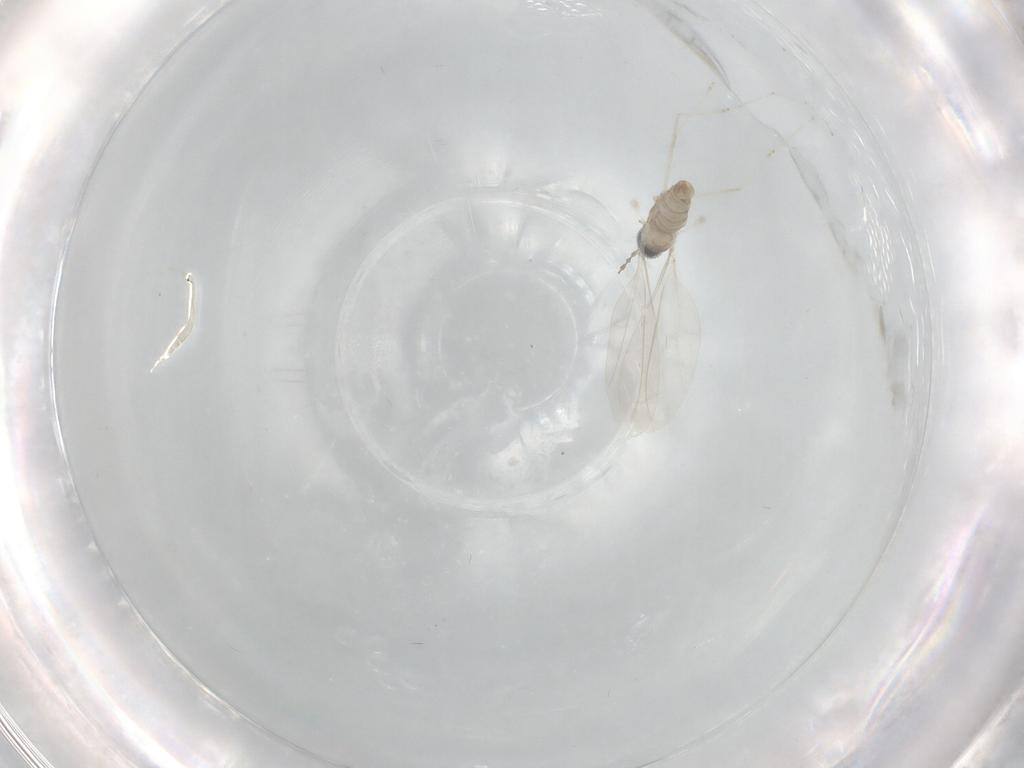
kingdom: Animalia
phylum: Arthropoda
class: Insecta
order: Diptera
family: Cecidomyiidae
